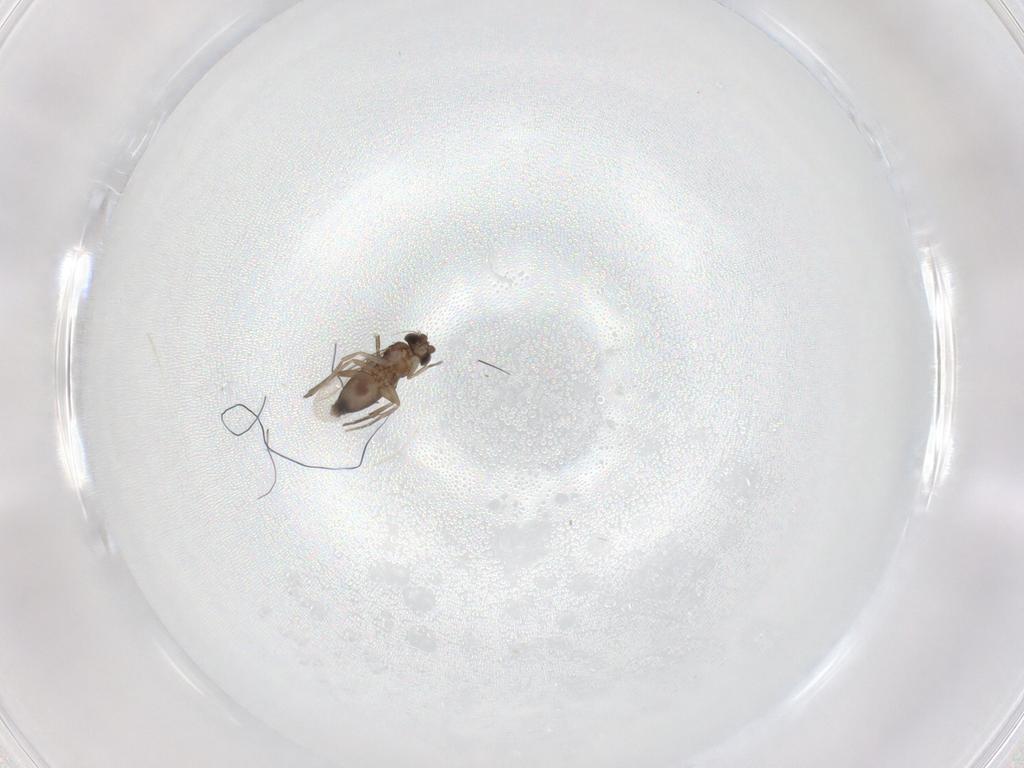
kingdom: Animalia
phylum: Arthropoda
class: Insecta
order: Diptera
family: Phoridae
